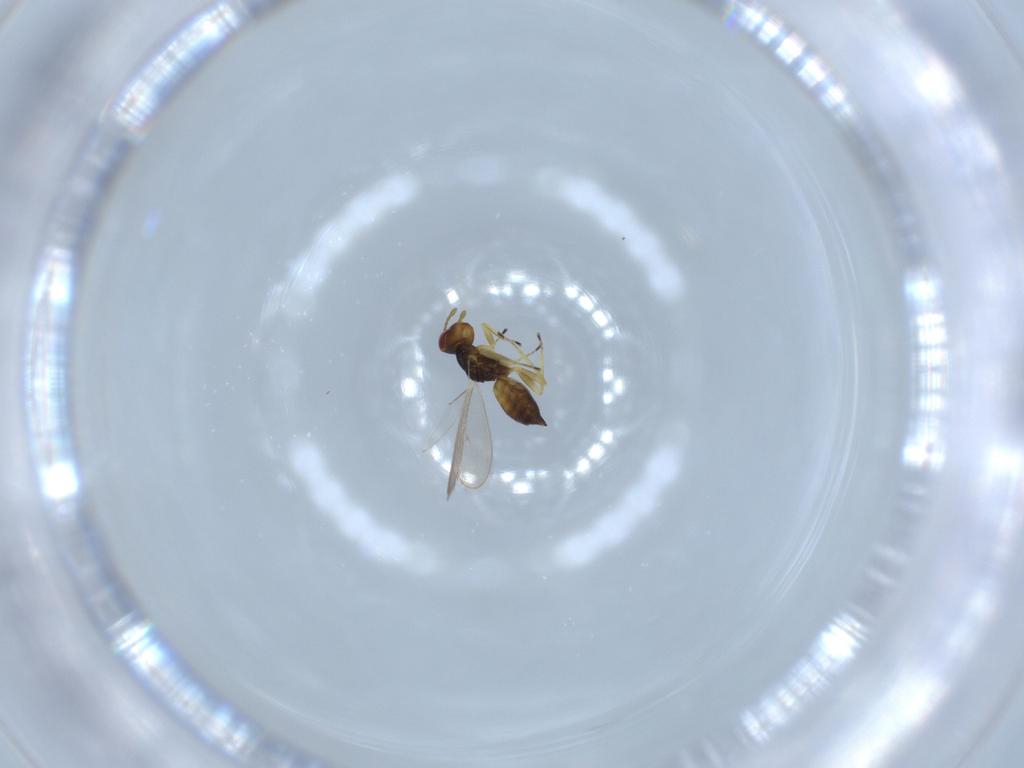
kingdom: Animalia
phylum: Arthropoda
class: Insecta
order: Hymenoptera
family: Eulophidae
